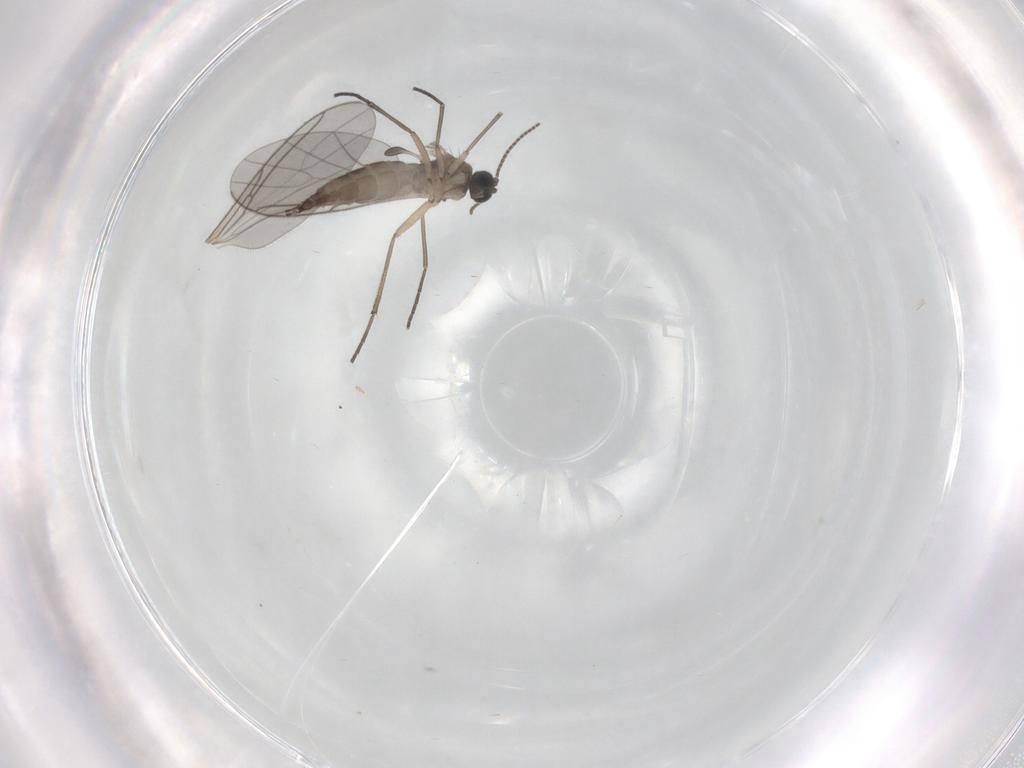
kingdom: Animalia
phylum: Arthropoda
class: Insecta
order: Diptera
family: Sciaridae
